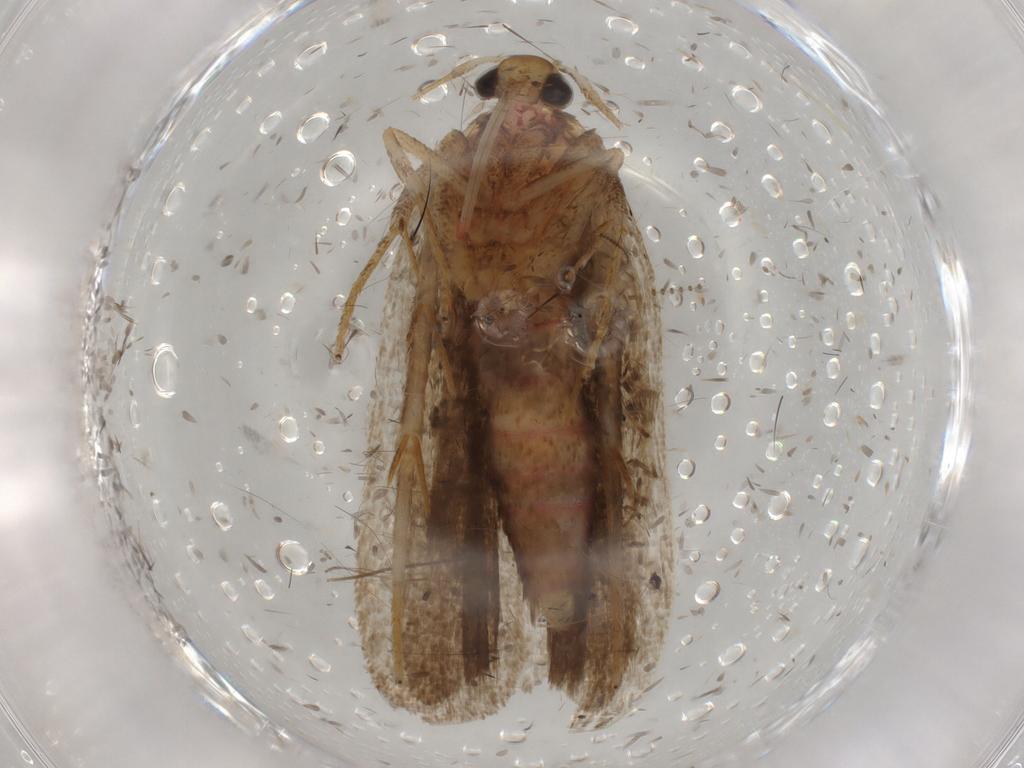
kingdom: Animalia
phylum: Arthropoda
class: Insecta
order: Lepidoptera
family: Autostichidae
